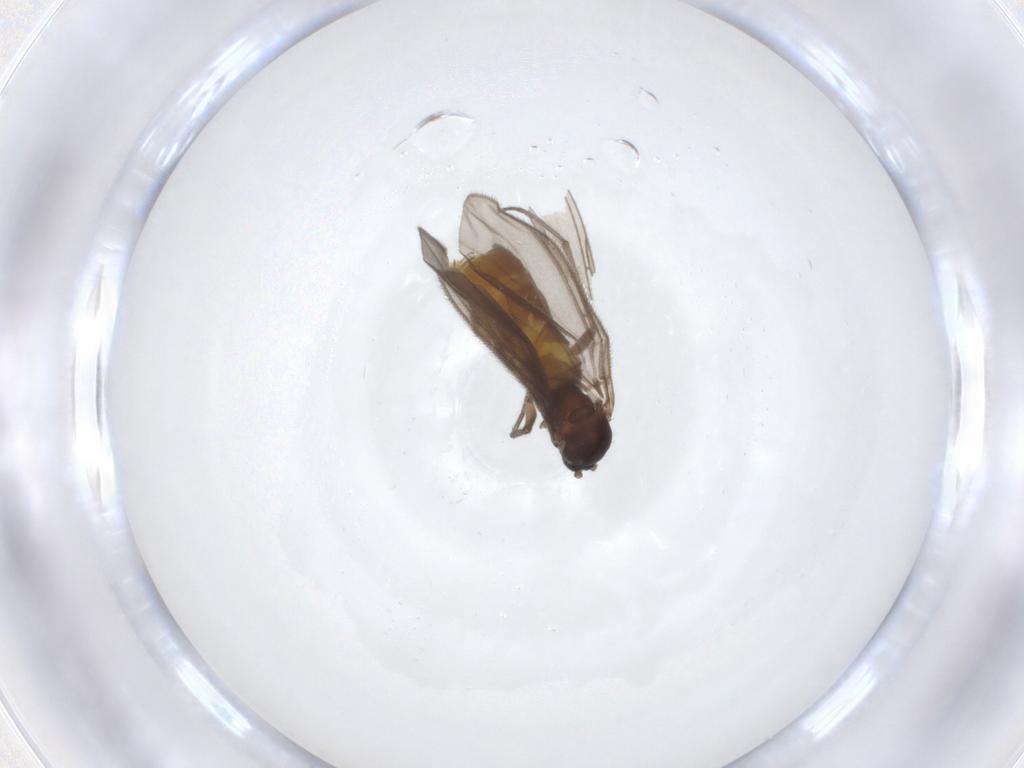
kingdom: Animalia
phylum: Arthropoda
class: Insecta
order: Diptera
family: Sciaridae
